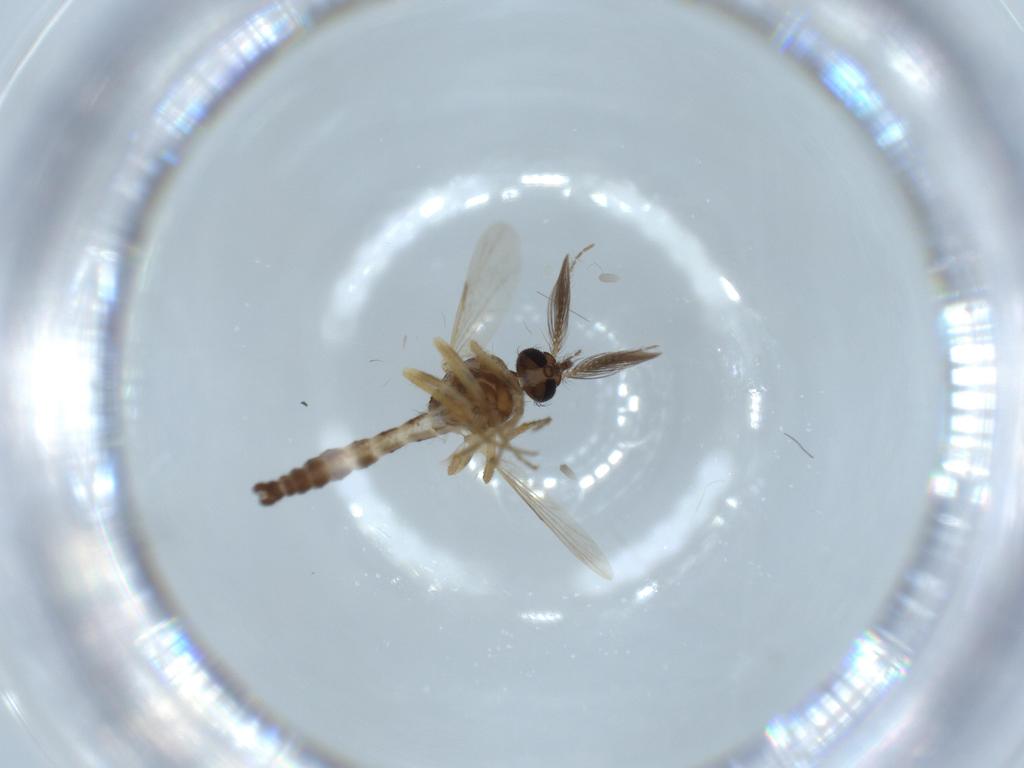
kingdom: Animalia
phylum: Arthropoda
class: Insecta
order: Diptera
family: Ceratopogonidae
